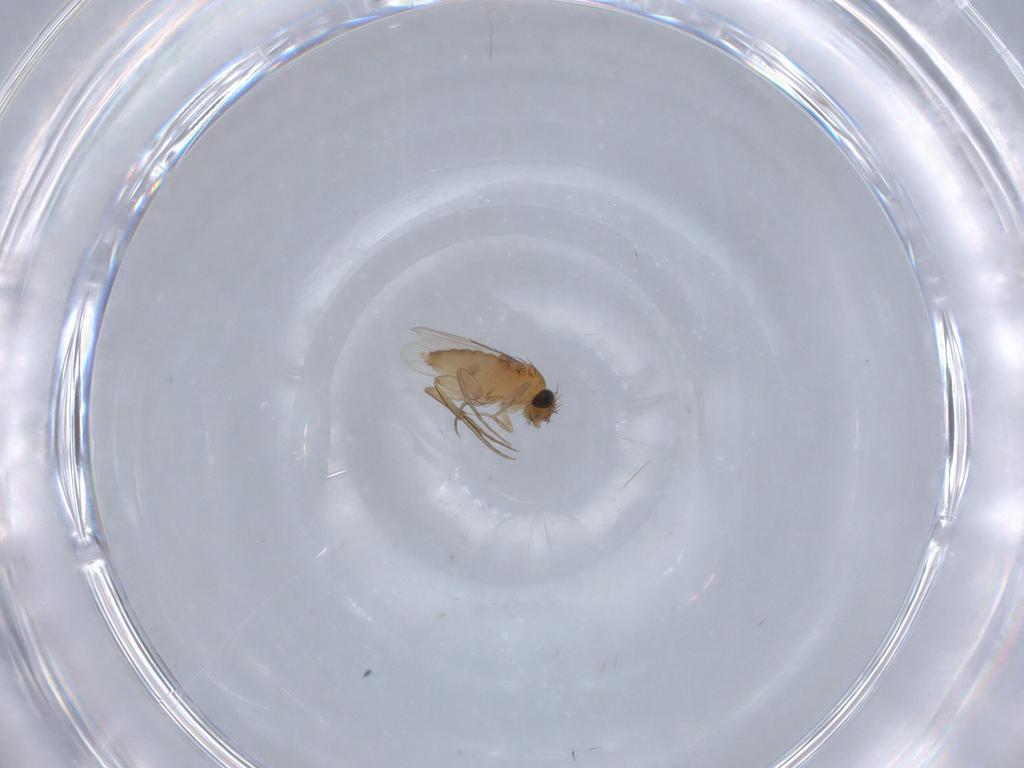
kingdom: Animalia
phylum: Arthropoda
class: Insecta
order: Diptera
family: Phoridae
